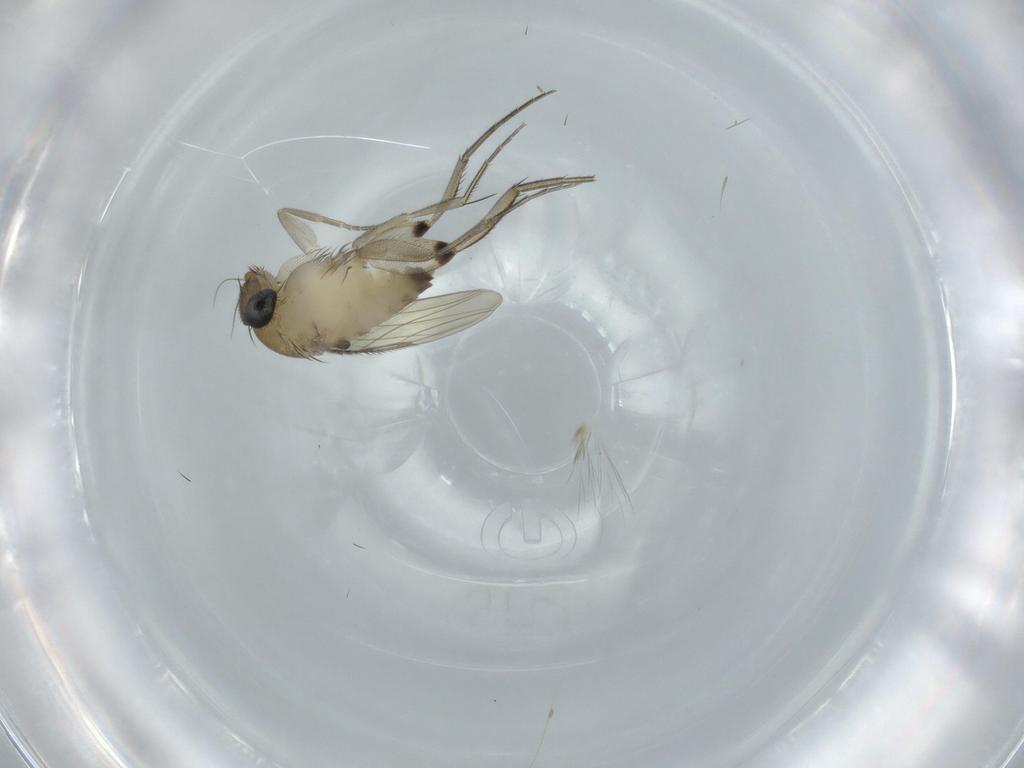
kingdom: Animalia
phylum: Arthropoda
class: Insecta
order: Diptera
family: Phoridae
